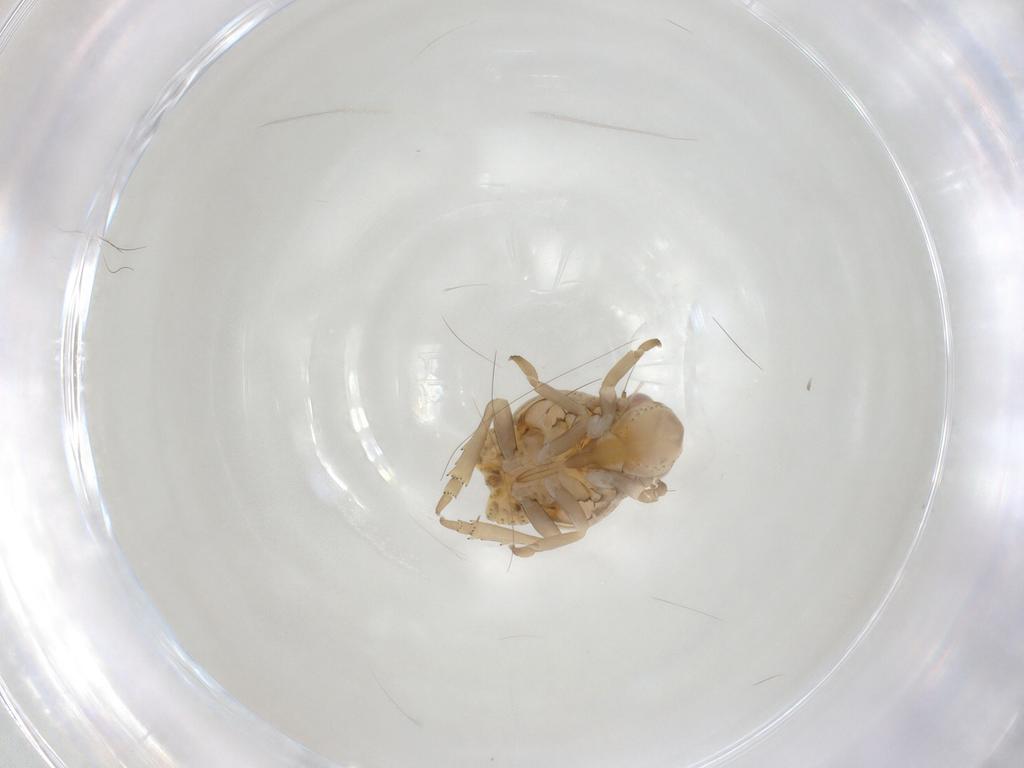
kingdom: Animalia
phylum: Arthropoda
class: Insecta
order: Hemiptera
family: Flatidae
